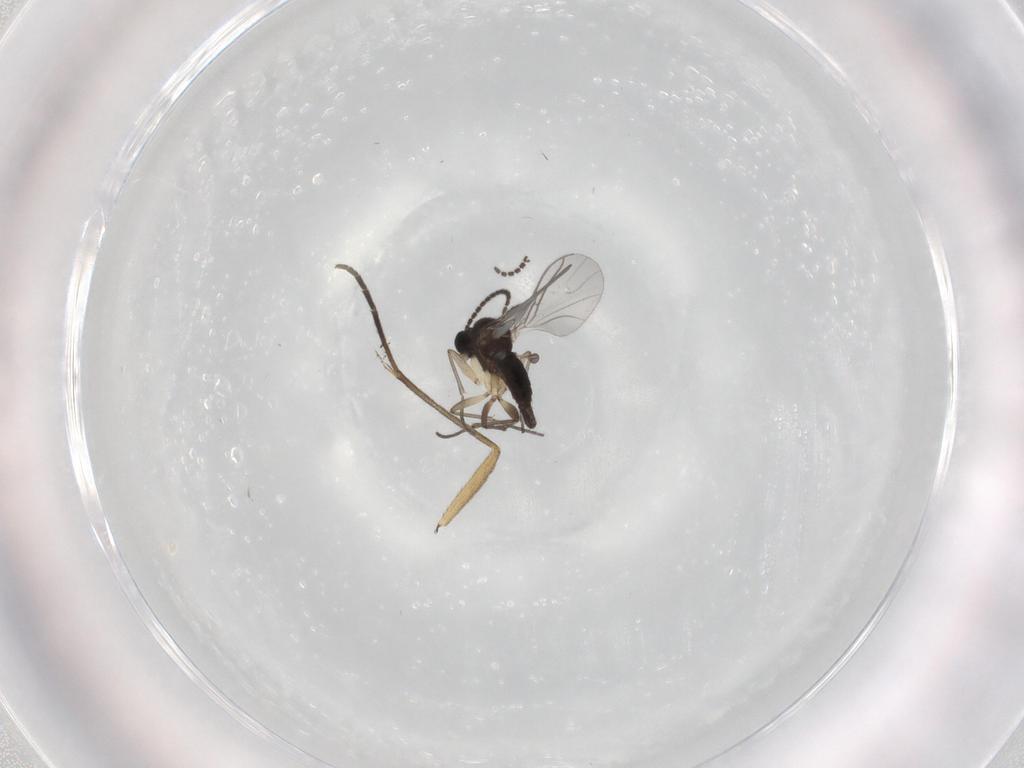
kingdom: Animalia
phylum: Arthropoda
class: Insecta
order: Diptera
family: Sciaridae
